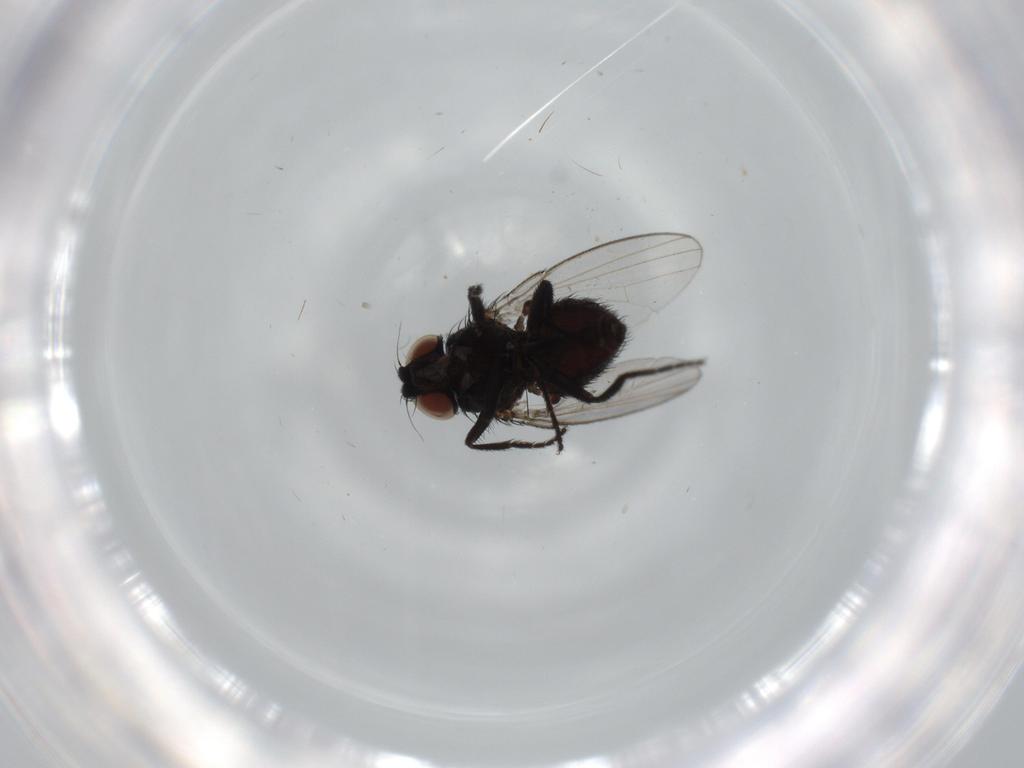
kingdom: Animalia
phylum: Arthropoda
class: Insecta
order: Diptera
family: Milichiidae
